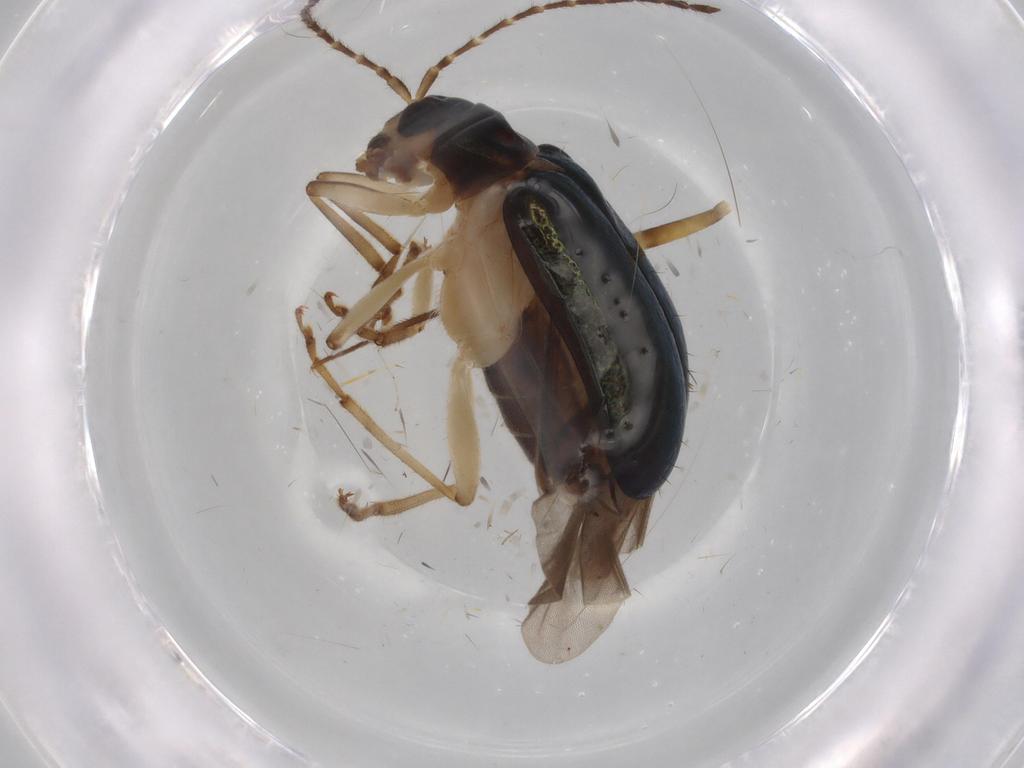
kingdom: Animalia
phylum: Arthropoda
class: Insecta
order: Coleoptera
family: Chrysomelidae
